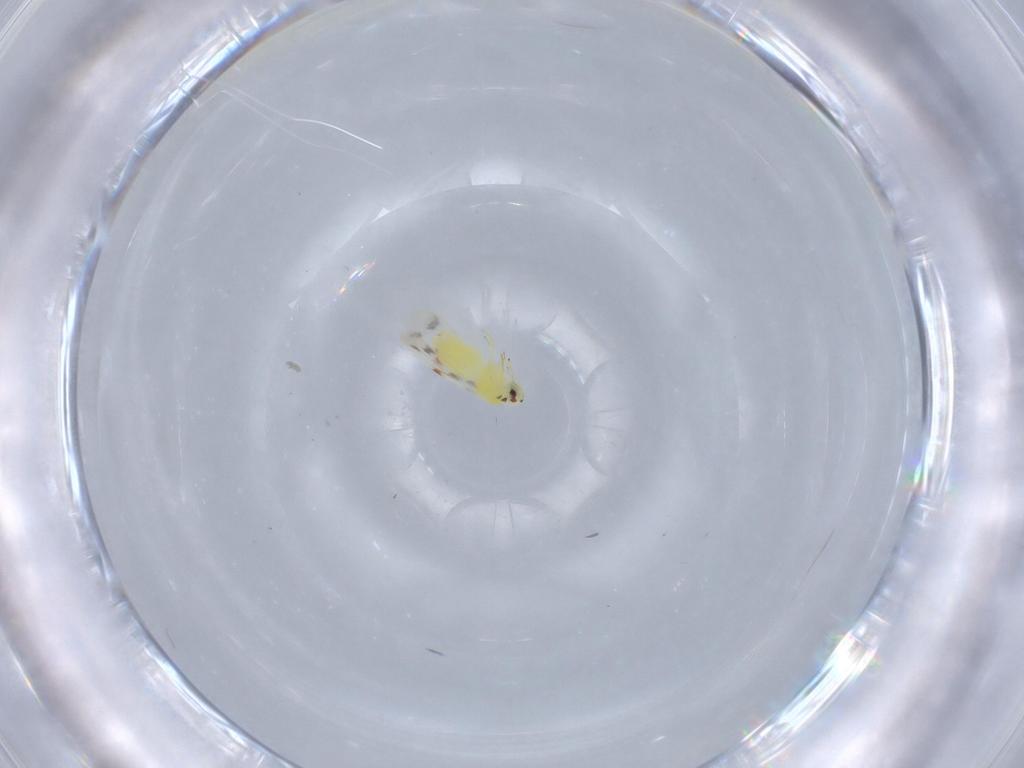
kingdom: Animalia
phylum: Arthropoda
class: Insecta
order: Hemiptera
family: Aleyrodidae
